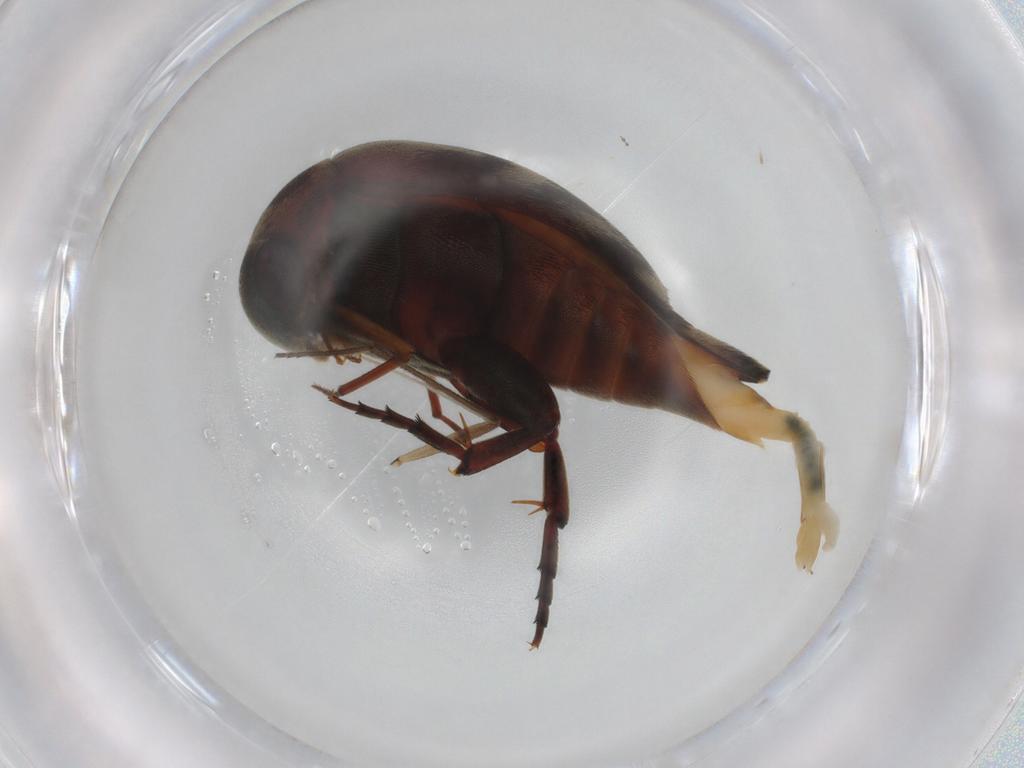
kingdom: Animalia
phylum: Arthropoda
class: Insecta
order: Coleoptera
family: Mordellidae
